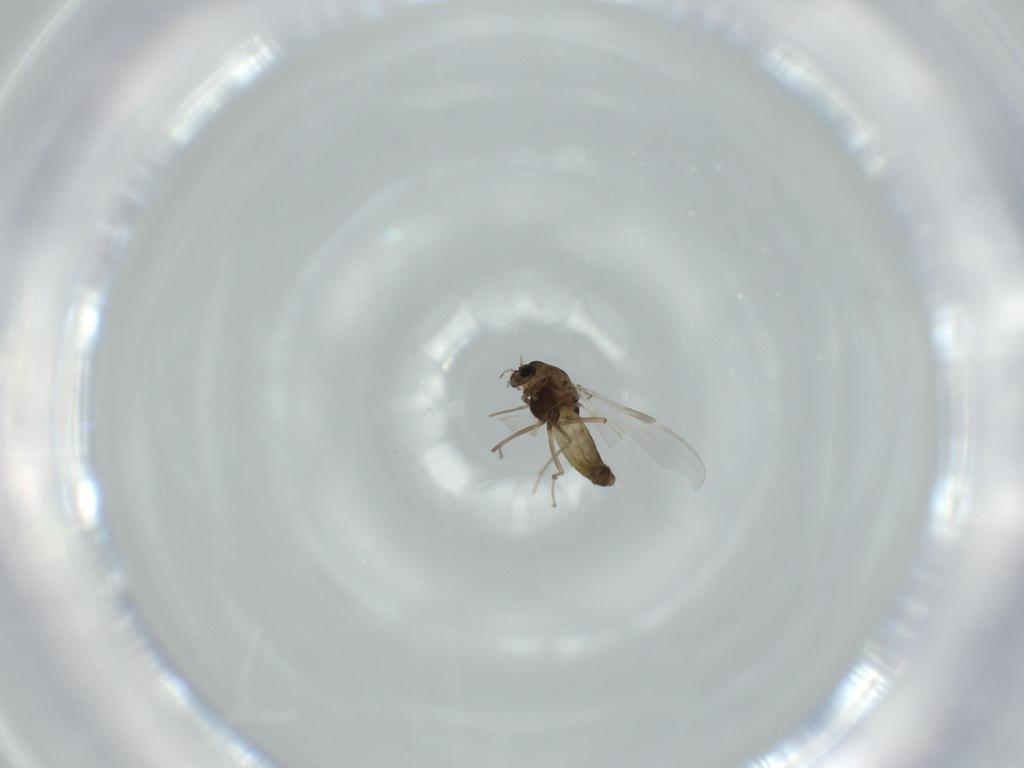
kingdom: Animalia
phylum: Arthropoda
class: Insecta
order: Diptera
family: Chironomidae
